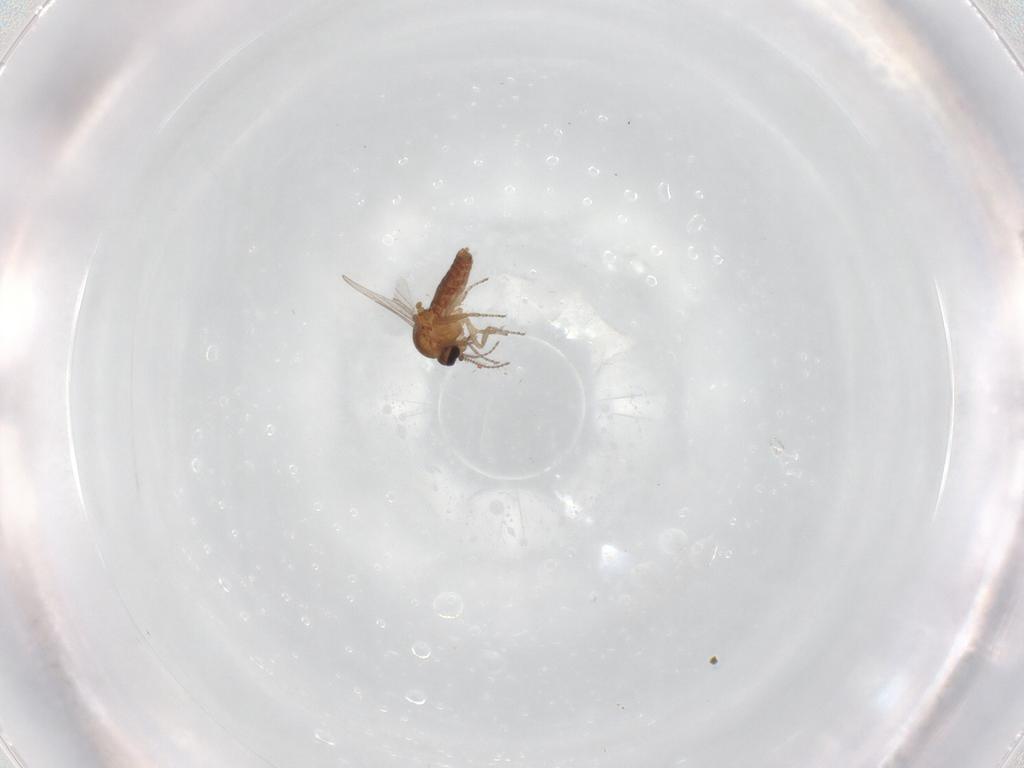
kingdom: Animalia
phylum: Arthropoda
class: Insecta
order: Diptera
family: Ceratopogonidae
